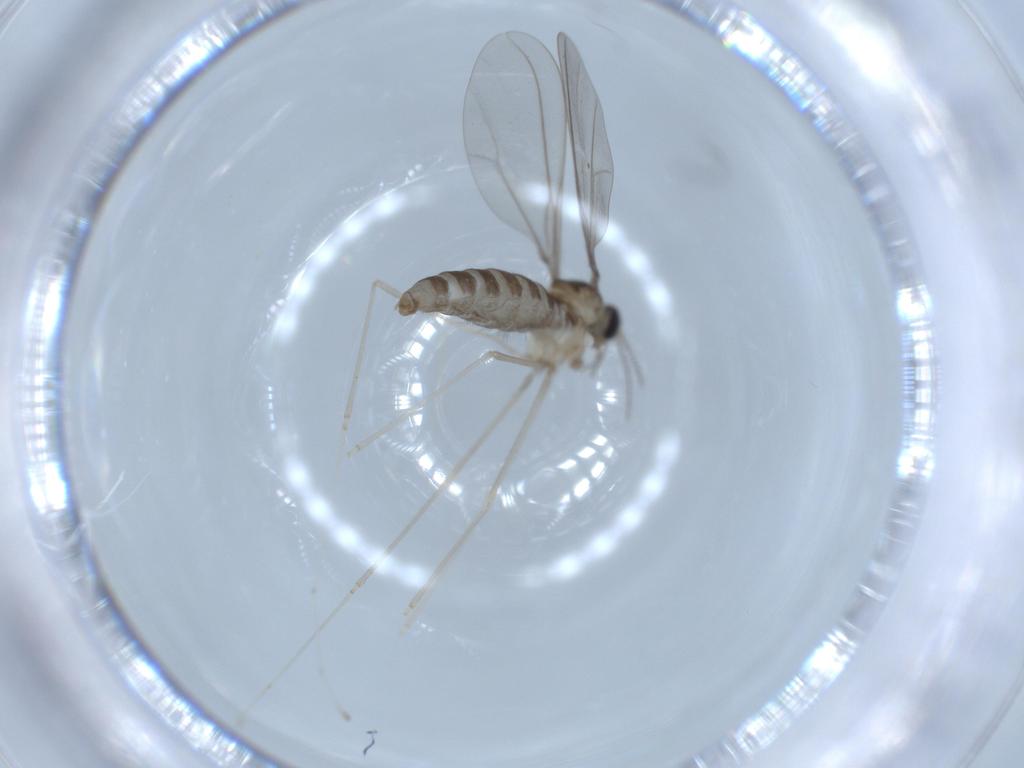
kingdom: Animalia
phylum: Arthropoda
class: Insecta
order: Diptera
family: Cecidomyiidae
